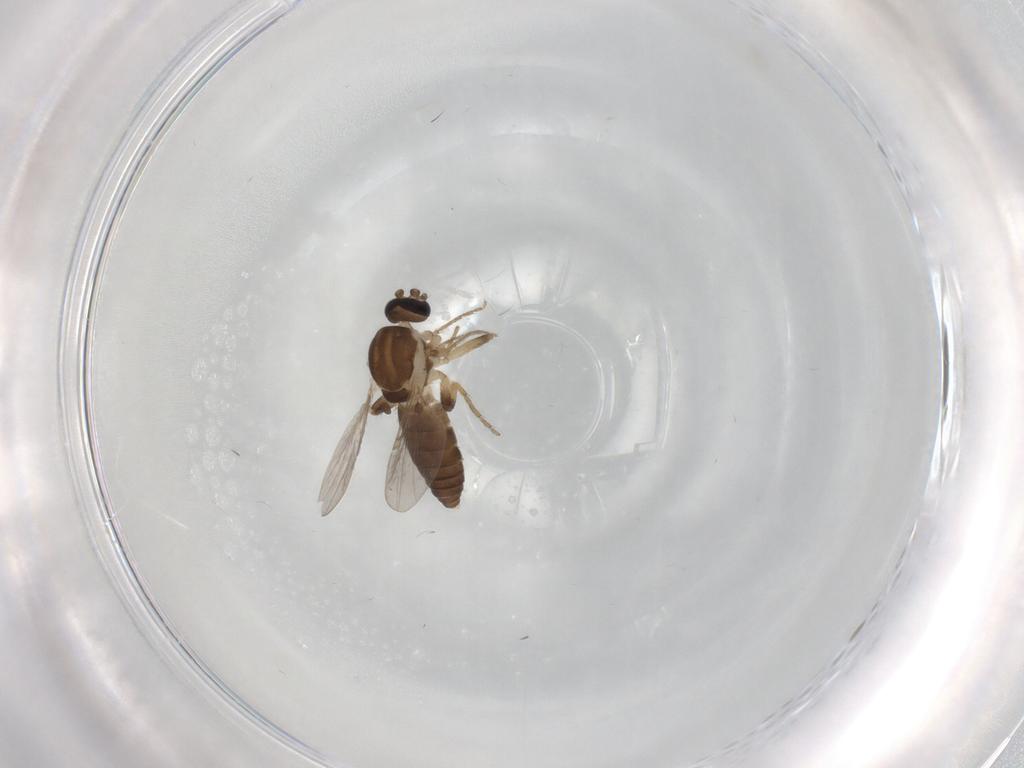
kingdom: Animalia
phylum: Arthropoda
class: Insecta
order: Diptera
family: Ceratopogonidae
